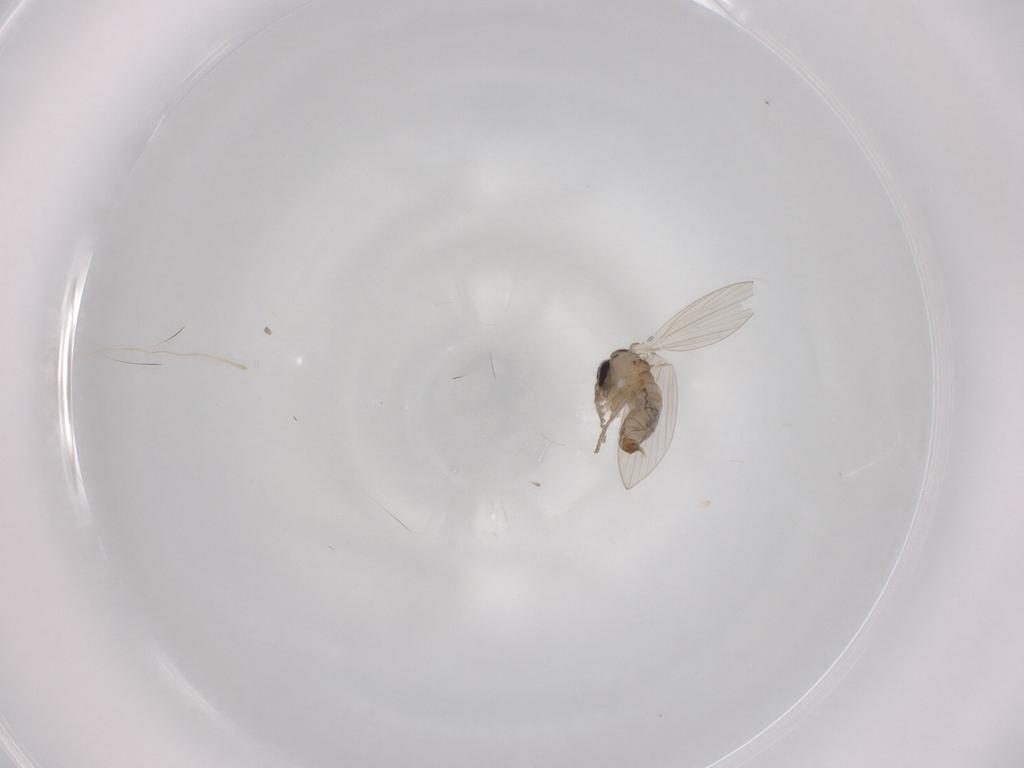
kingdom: Animalia
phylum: Arthropoda
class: Insecta
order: Diptera
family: Psychodidae
